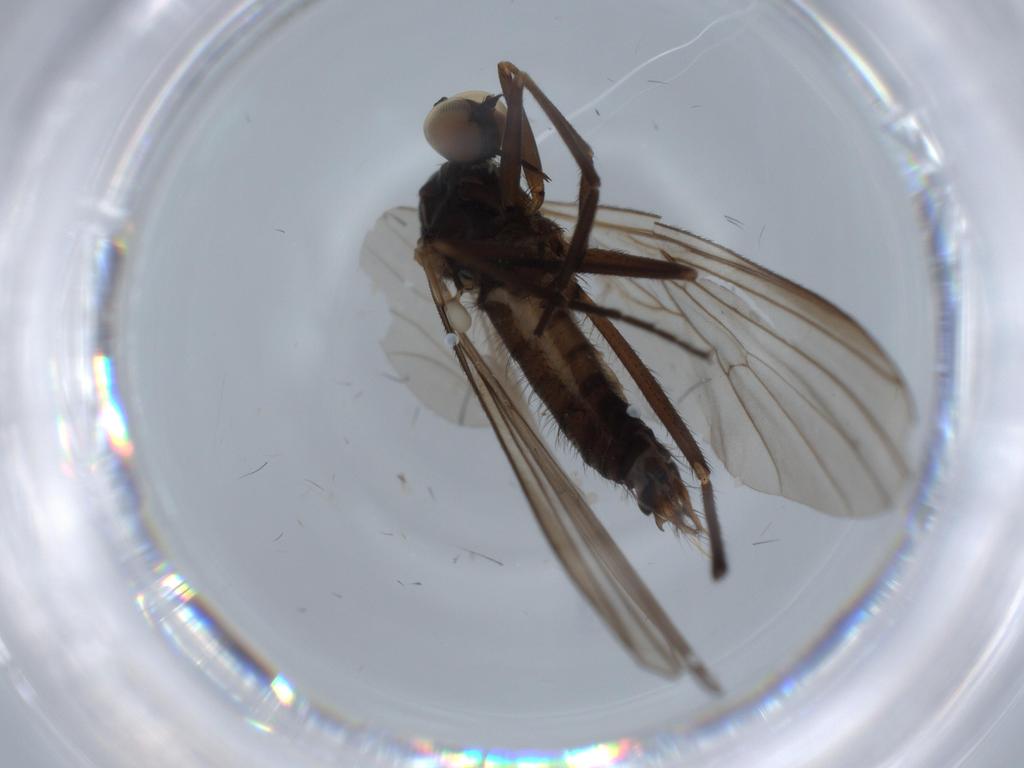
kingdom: Animalia
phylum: Arthropoda
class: Insecta
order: Diptera
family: Empididae
